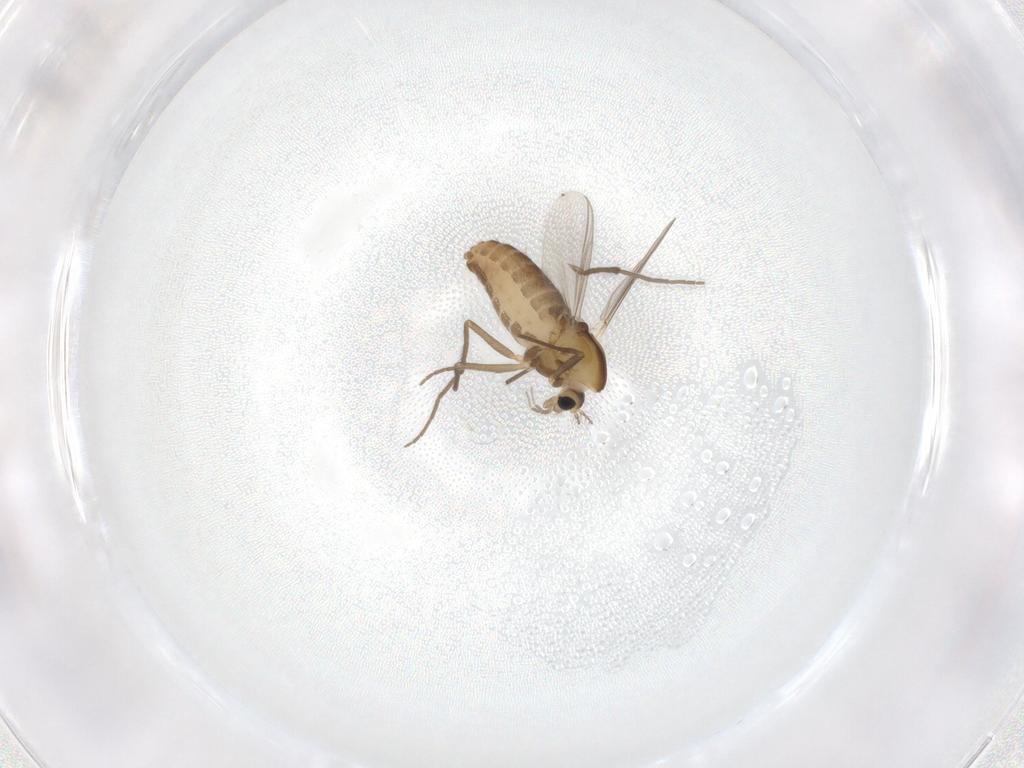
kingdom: Animalia
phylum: Arthropoda
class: Insecta
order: Diptera
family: Chironomidae
